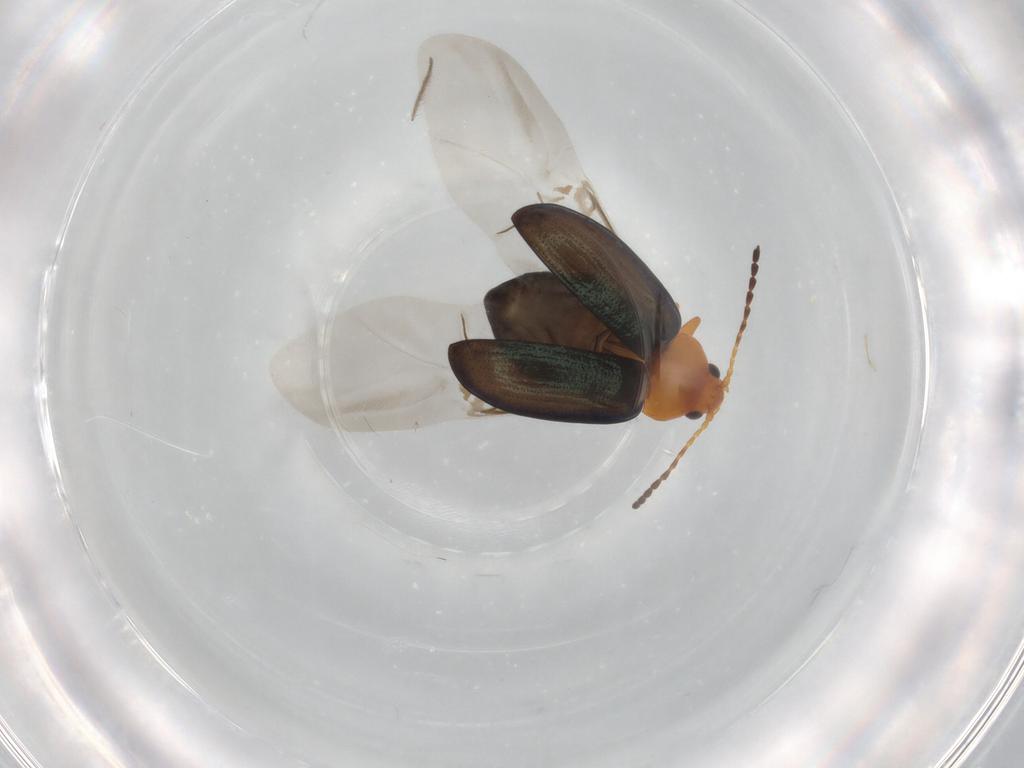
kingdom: Animalia
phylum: Arthropoda
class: Insecta
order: Coleoptera
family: Chrysomelidae
